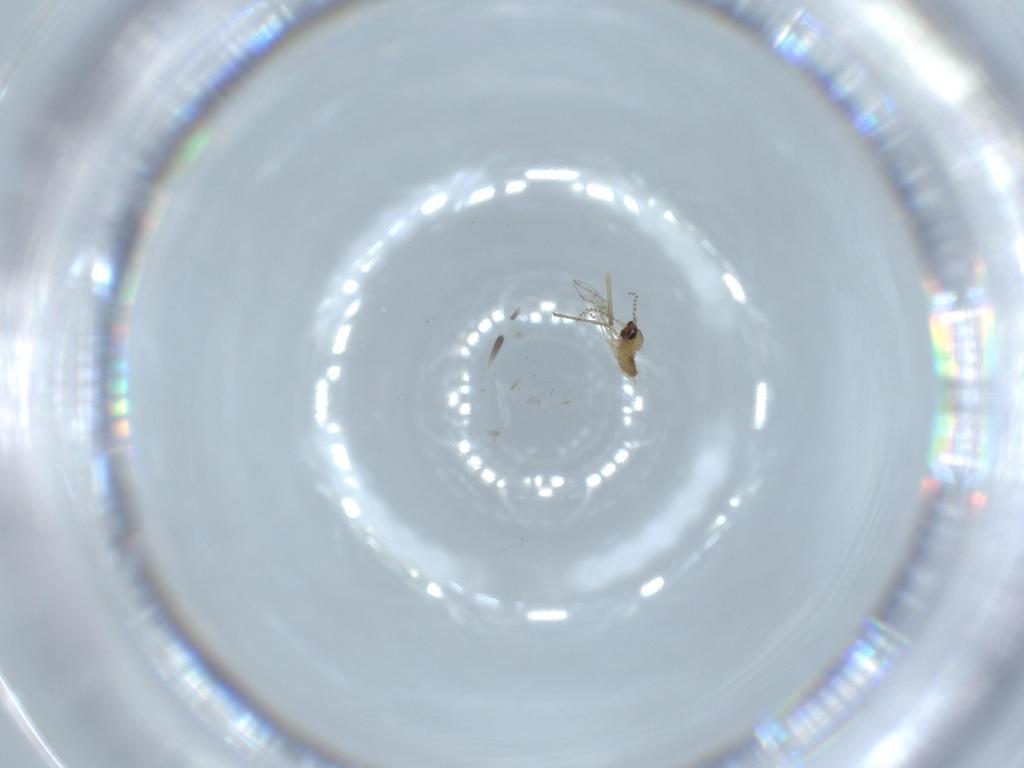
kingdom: Animalia
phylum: Arthropoda
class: Insecta
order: Diptera
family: Cecidomyiidae
